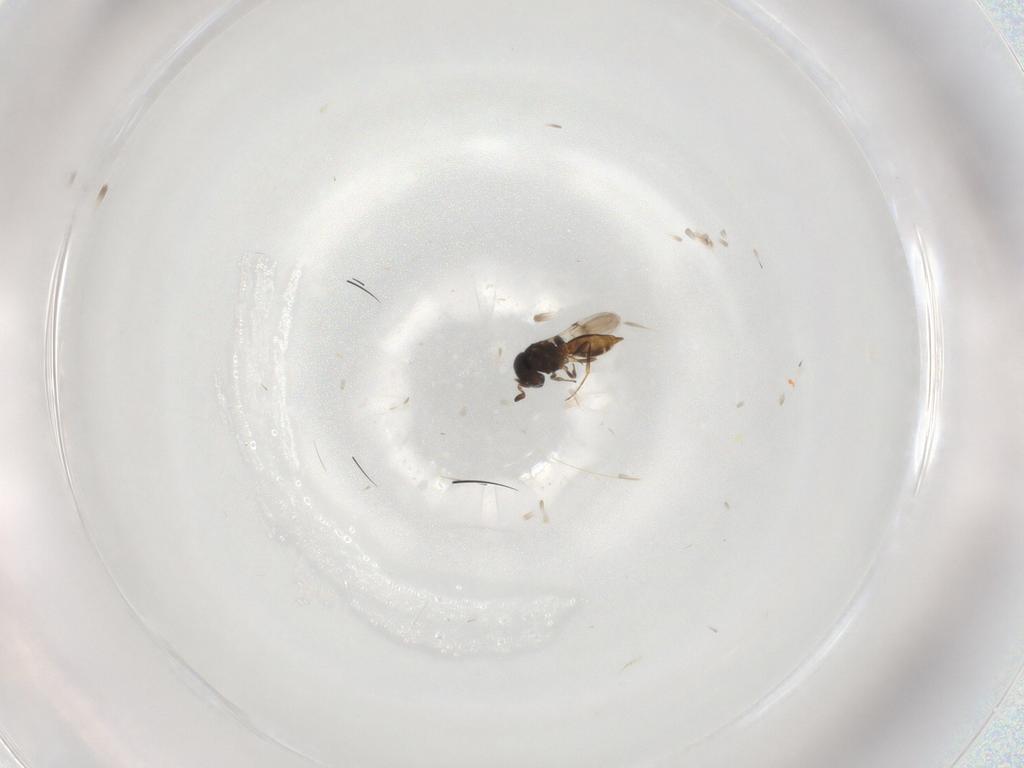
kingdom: Animalia
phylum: Arthropoda
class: Insecta
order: Hymenoptera
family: Scelionidae
